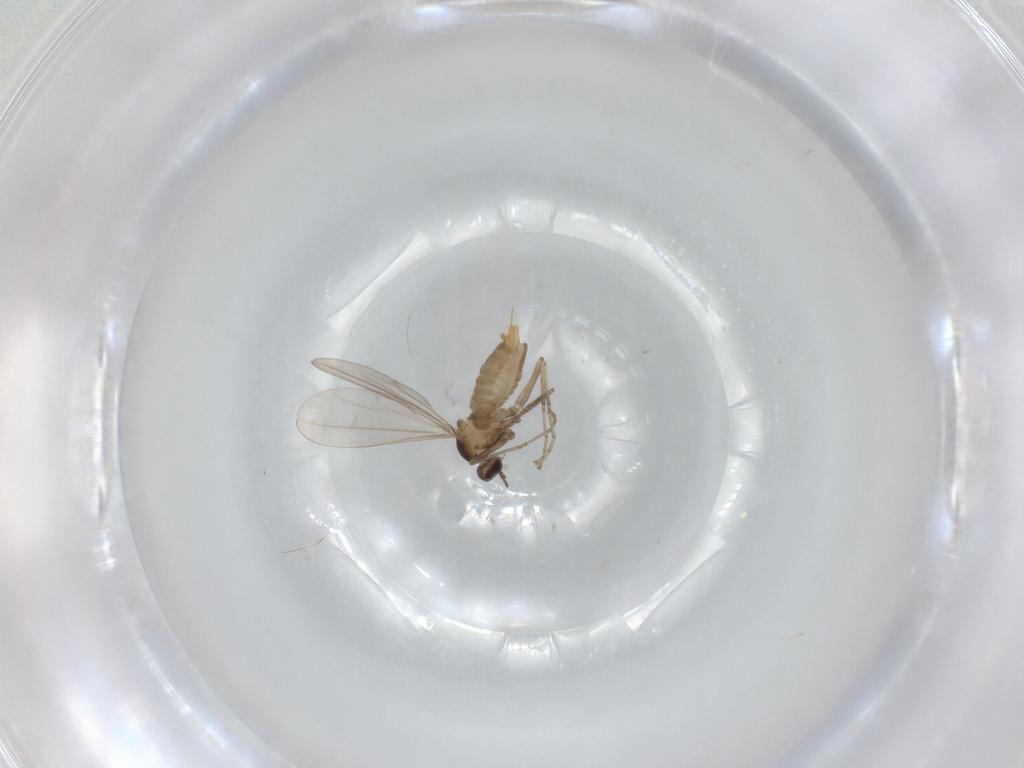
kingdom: Animalia
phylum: Arthropoda
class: Insecta
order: Diptera
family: Cecidomyiidae
